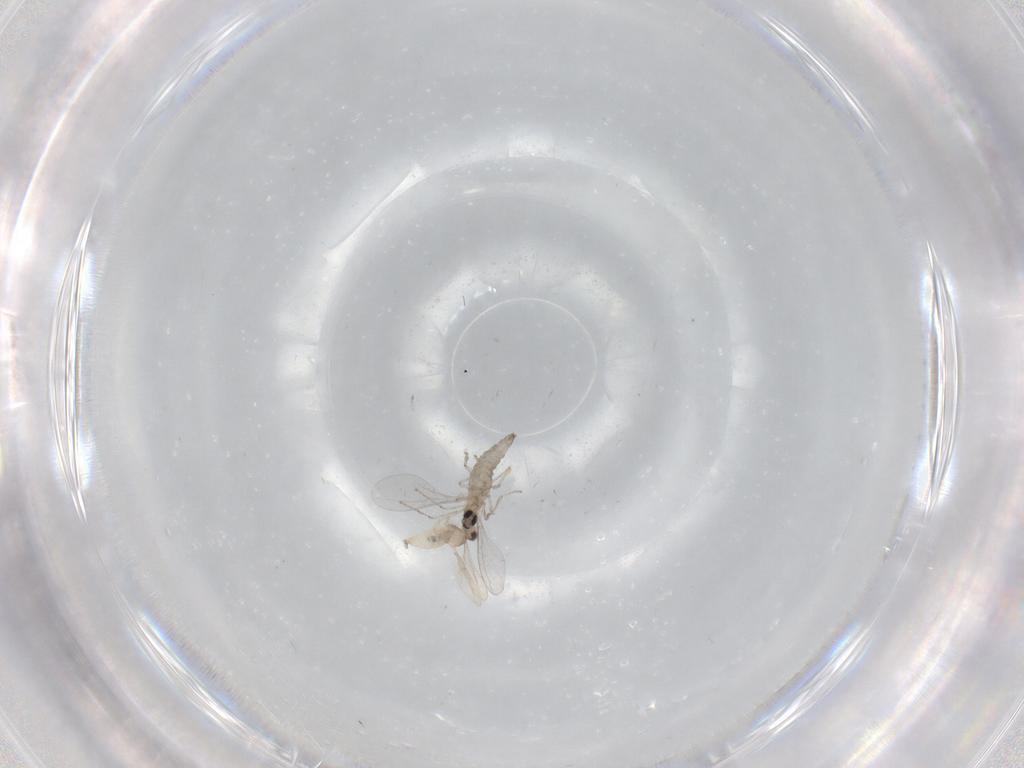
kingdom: Animalia
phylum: Arthropoda
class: Insecta
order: Diptera
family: Cecidomyiidae
